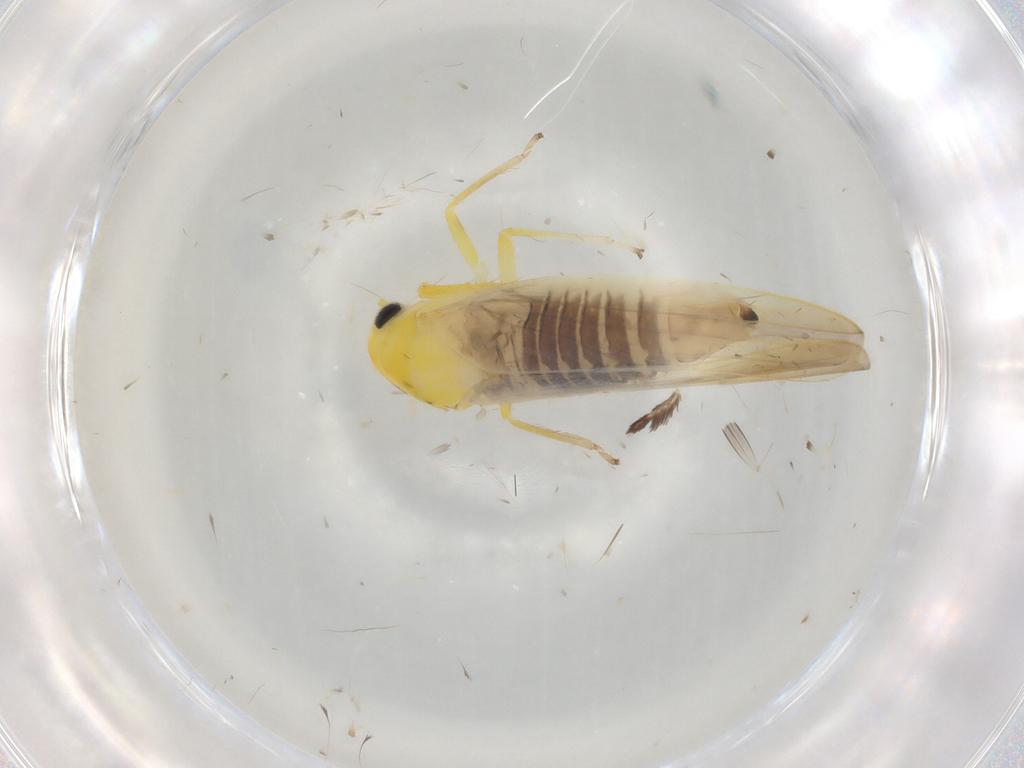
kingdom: Animalia
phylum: Arthropoda
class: Insecta
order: Hemiptera
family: Cicadellidae
